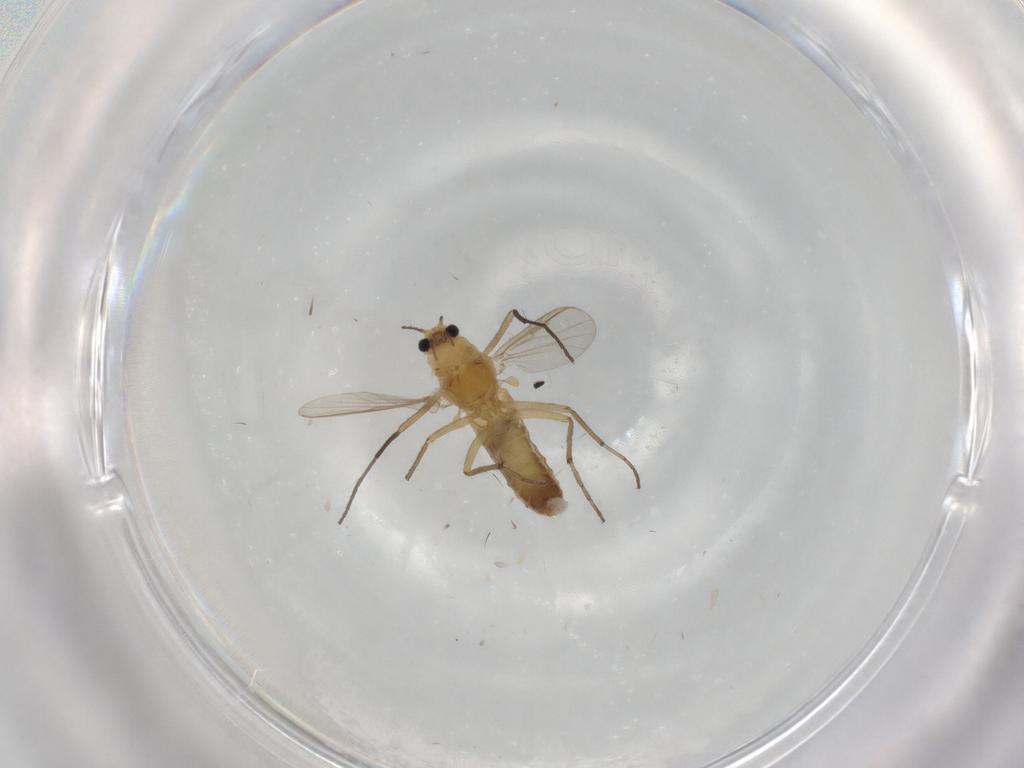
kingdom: Animalia
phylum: Arthropoda
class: Insecta
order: Diptera
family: Chironomidae
